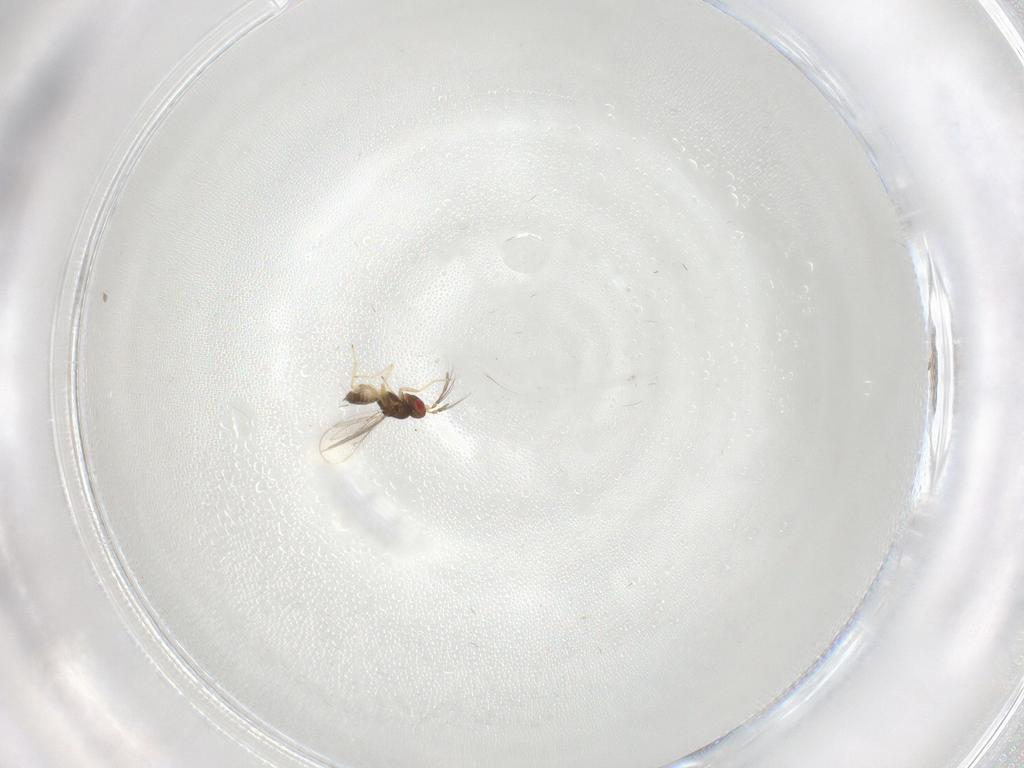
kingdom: Animalia
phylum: Arthropoda
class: Insecta
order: Hymenoptera
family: Eulophidae
